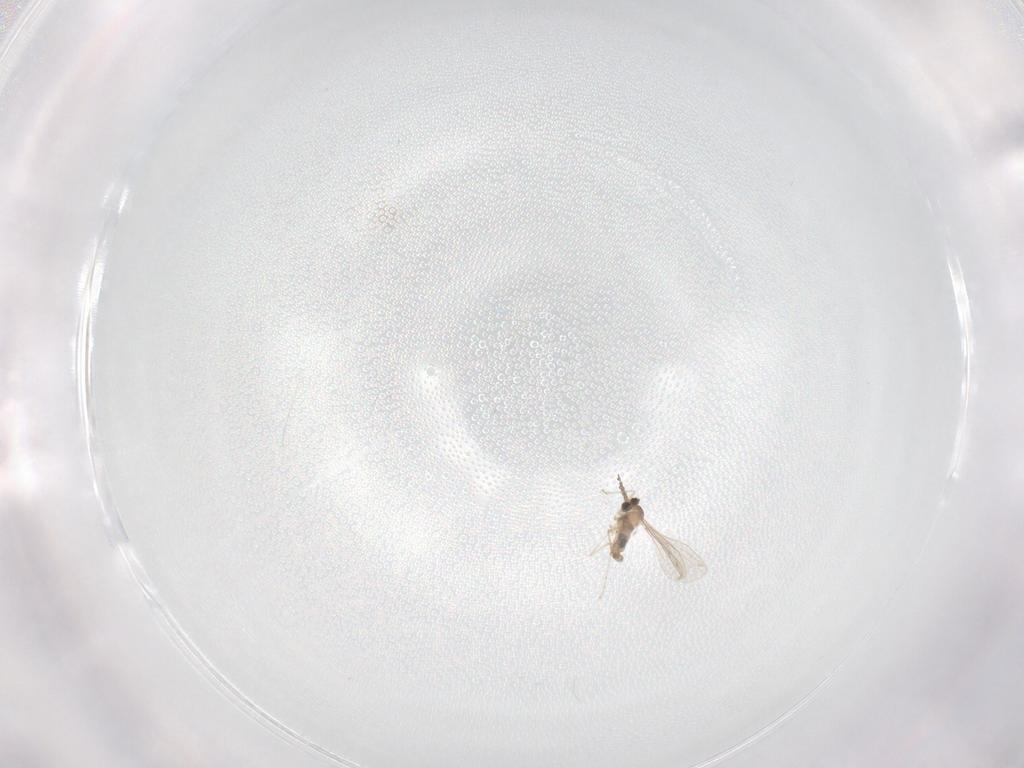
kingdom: Animalia
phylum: Arthropoda
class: Insecta
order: Diptera
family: Cecidomyiidae
